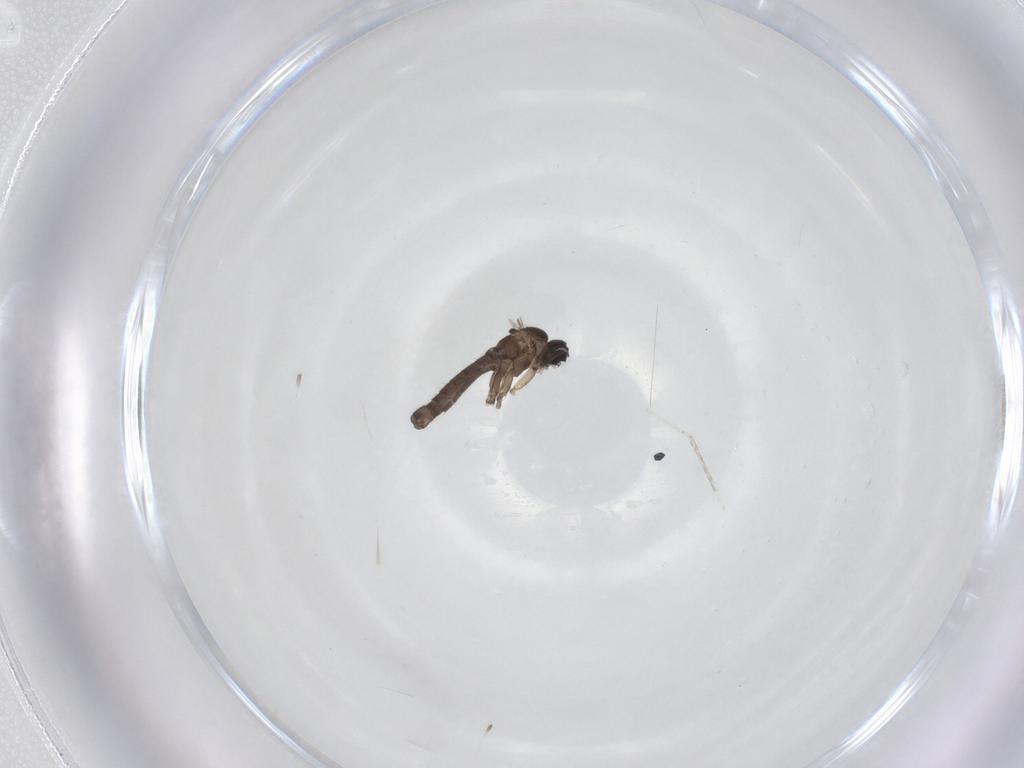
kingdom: Animalia
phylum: Arthropoda
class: Insecta
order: Diptera
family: Sciaridae
